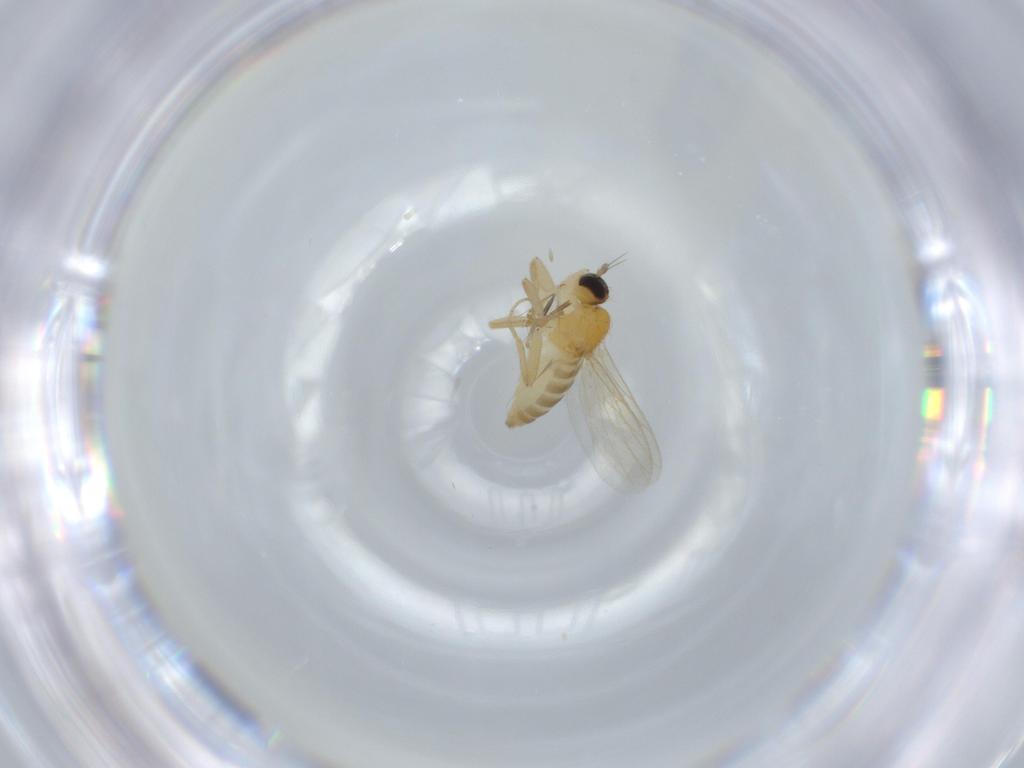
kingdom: Animalia
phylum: Arthropoda
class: Insecta
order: Diptera
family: Hybotidae
